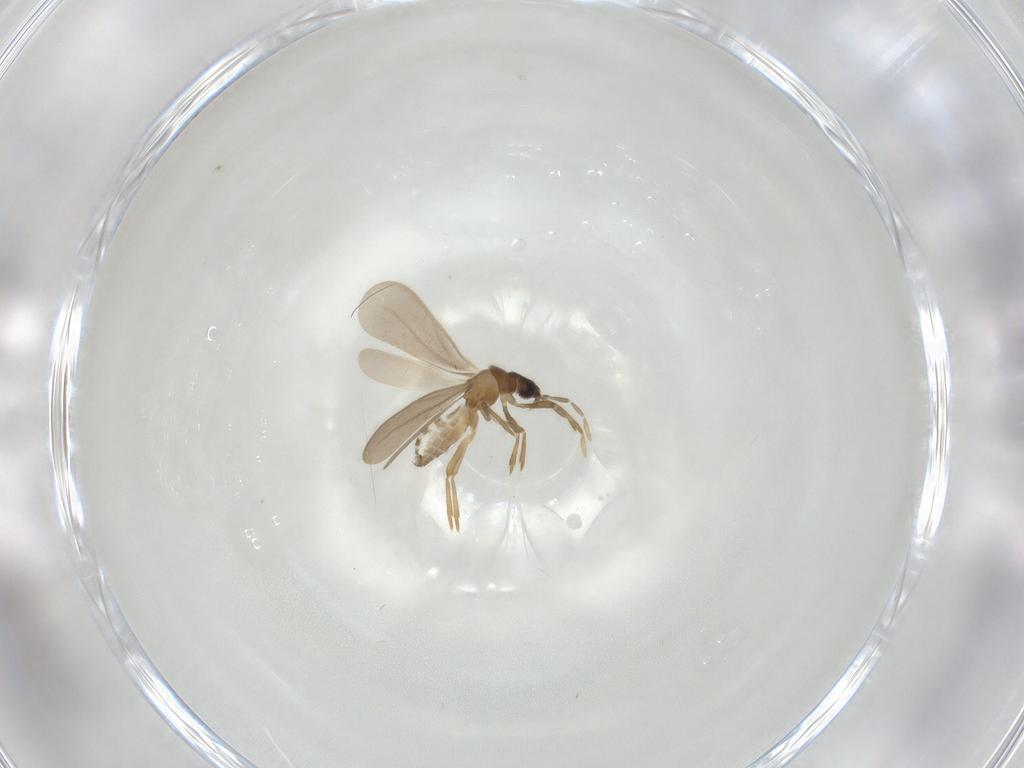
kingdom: Animalia
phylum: Arthropoda
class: Insecta
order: Hemiptera
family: Enicocephalidae
